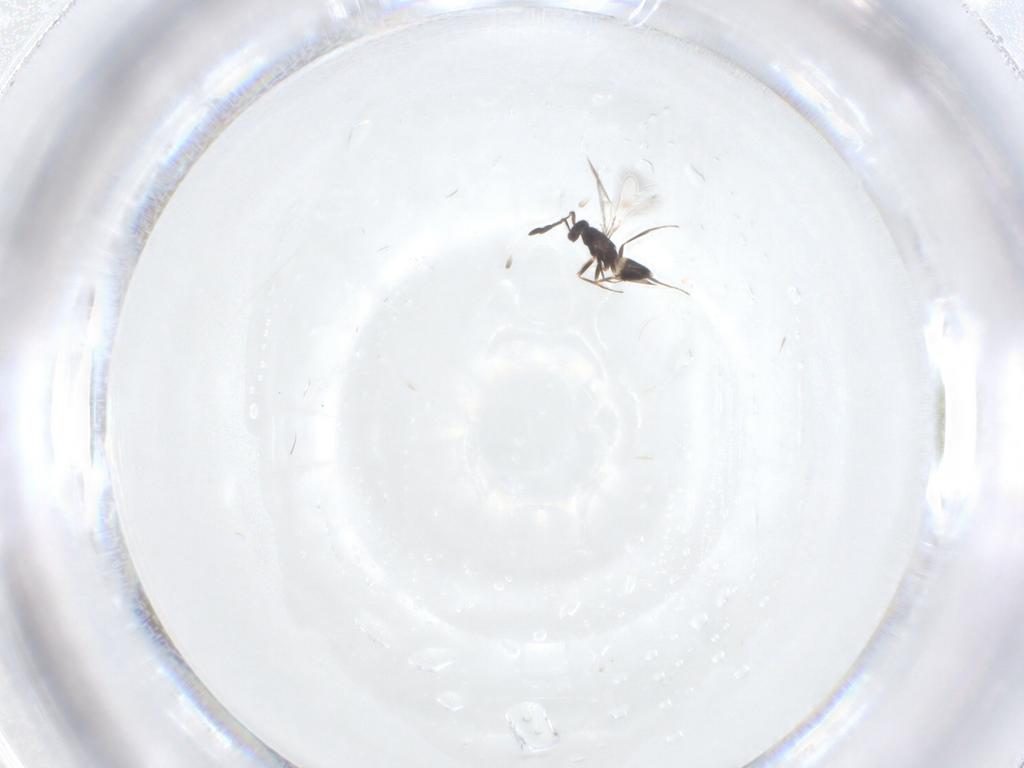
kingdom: Animalia
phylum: Arthropoda
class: Insecta
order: Hymenoptera
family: Mymaridae
